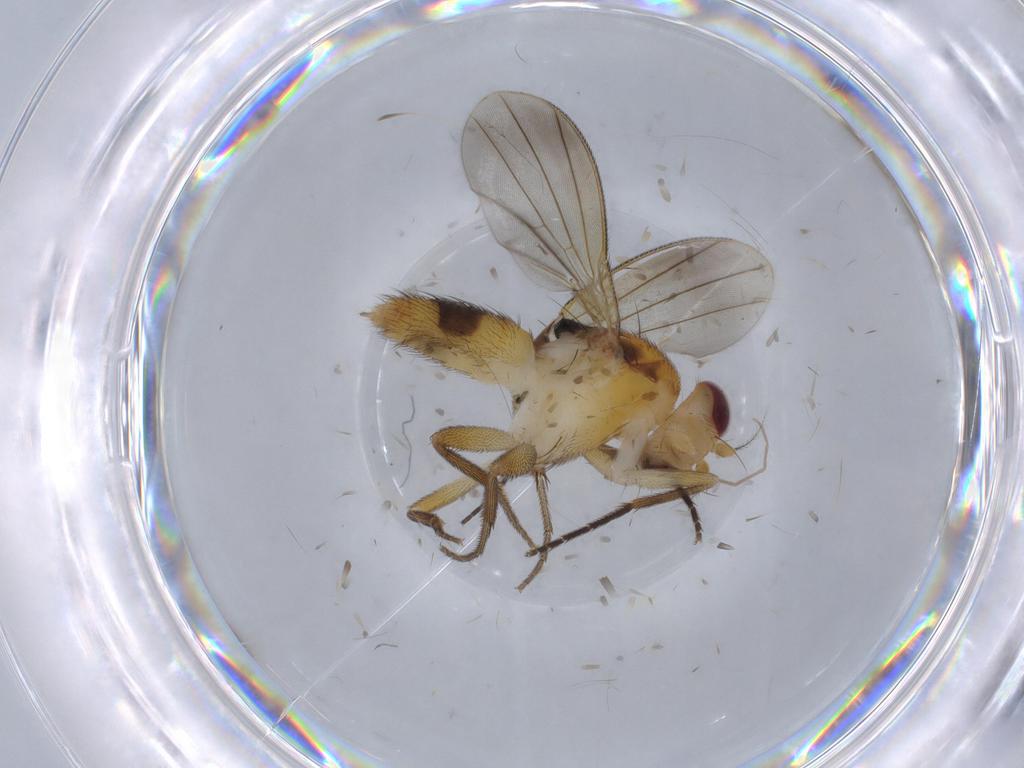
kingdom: Animalia
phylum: Arthropoda
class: Insecta
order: Diptera
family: Clusiidae
